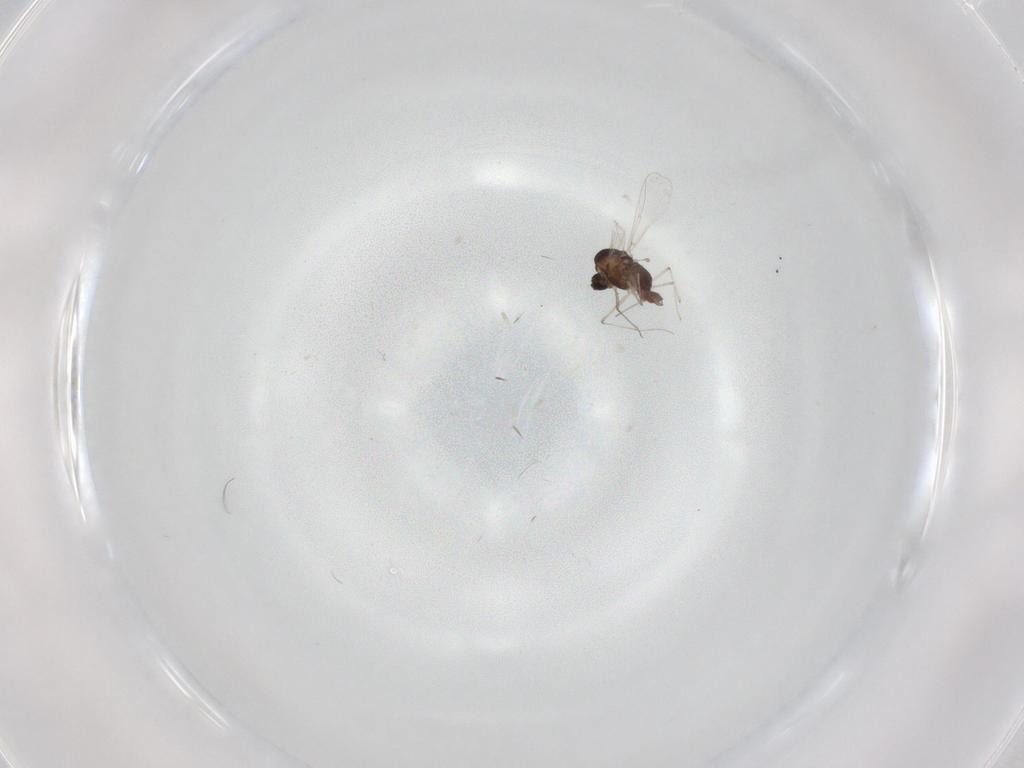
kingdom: Animalia
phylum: Arthropoda
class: Insecta
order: Diptera
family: Chironomidae
